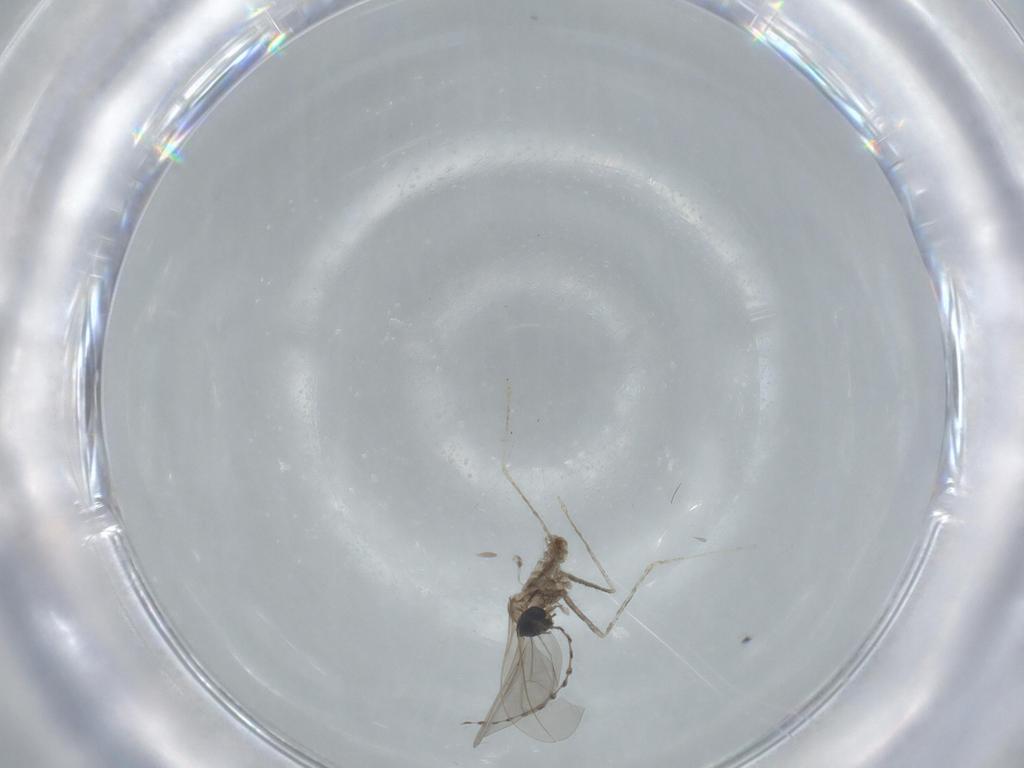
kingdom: Animalia
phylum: Arthropoda
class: Insecta
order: Diptera
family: Cecidomyiidae
